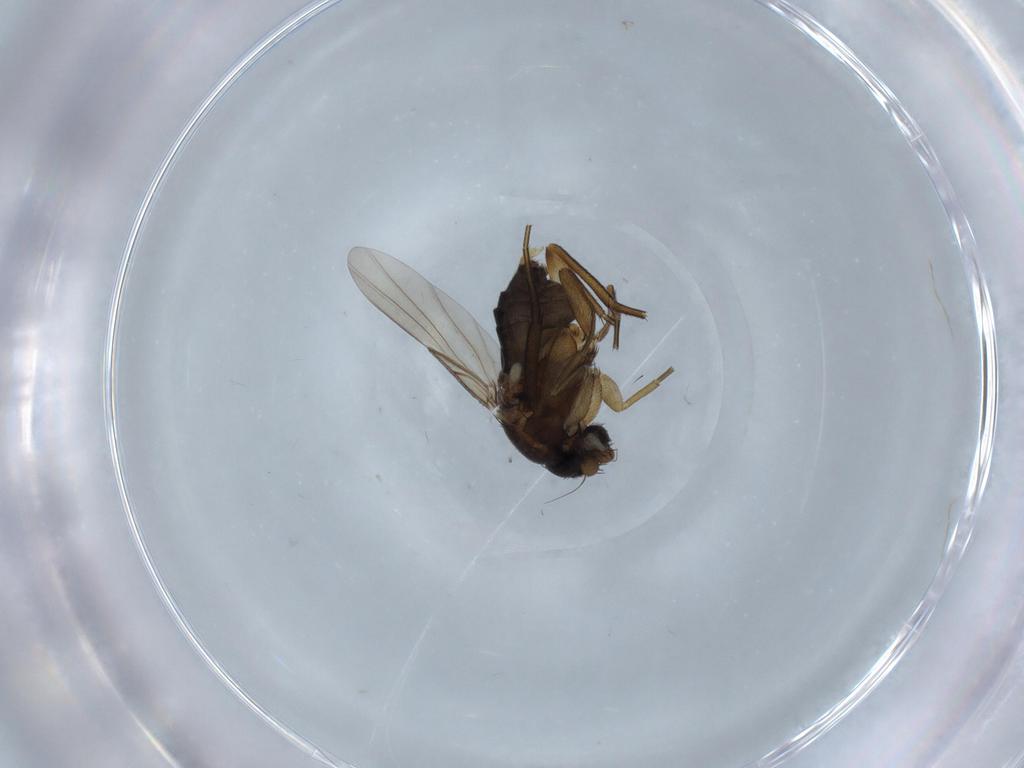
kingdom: Animalia
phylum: Arthropoda
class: Insecta
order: Diptera
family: Phoridae
